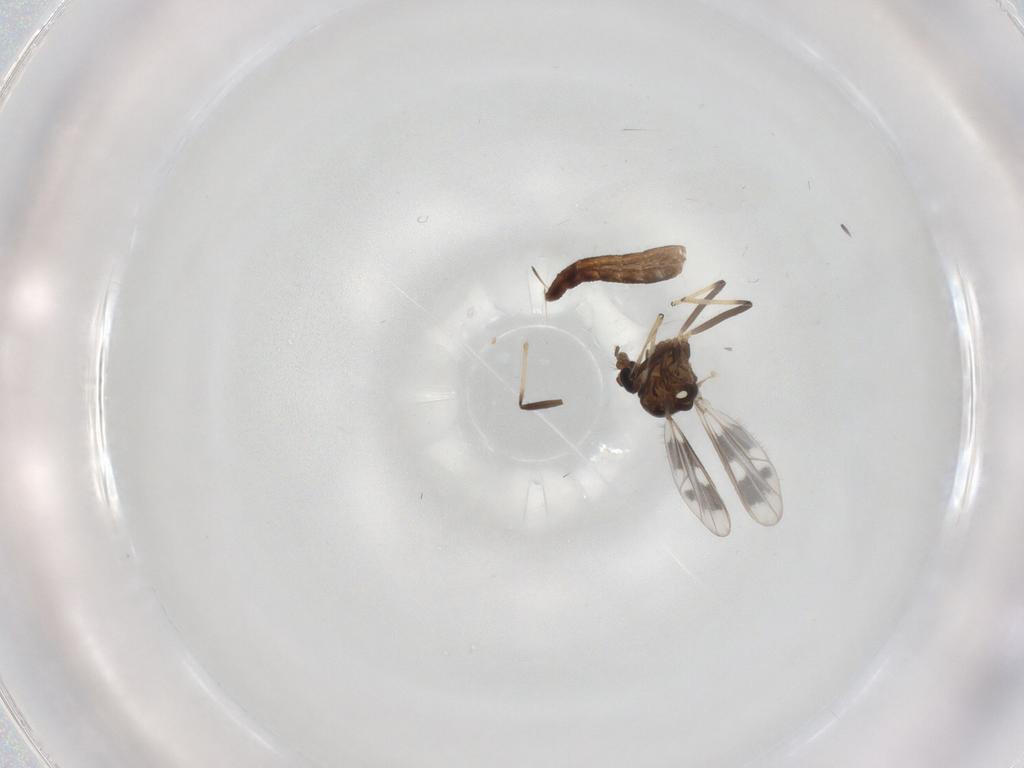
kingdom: Animalia
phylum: Arthropoda
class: Insecta
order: Diptera
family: Chironomidae
